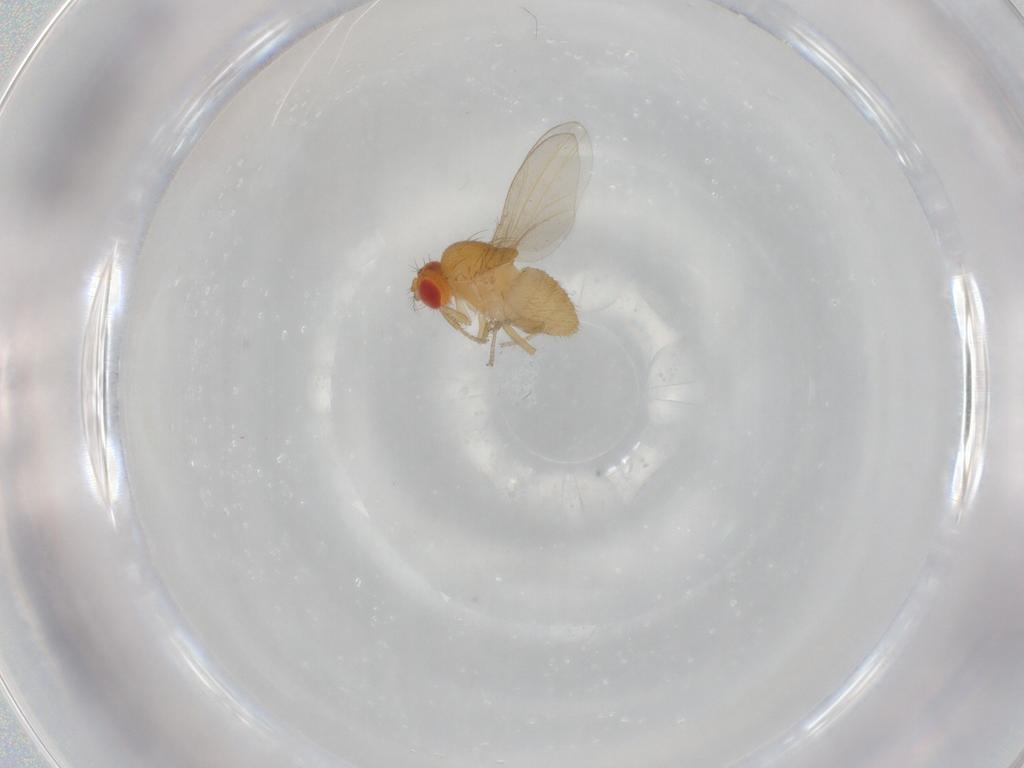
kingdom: Animalia
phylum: Arthropoda
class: Insecta
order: Diptera
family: Drosophilidae
